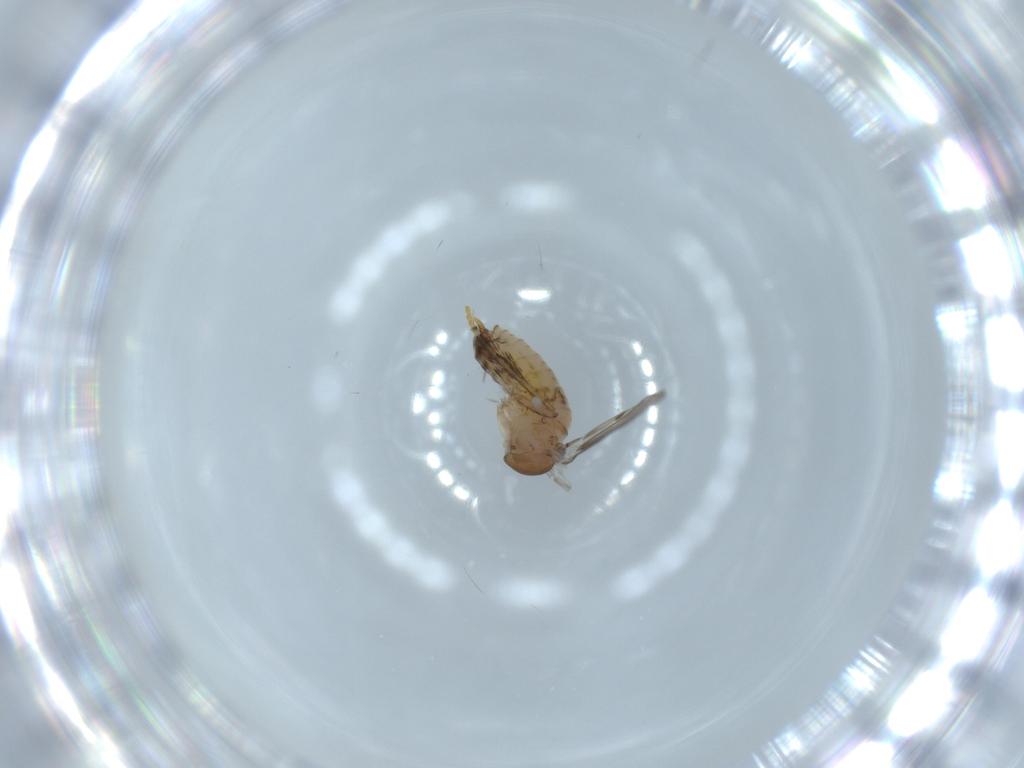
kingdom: Animalia
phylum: Arthropoda
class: Insecta
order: Diptera
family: Psychodidae
